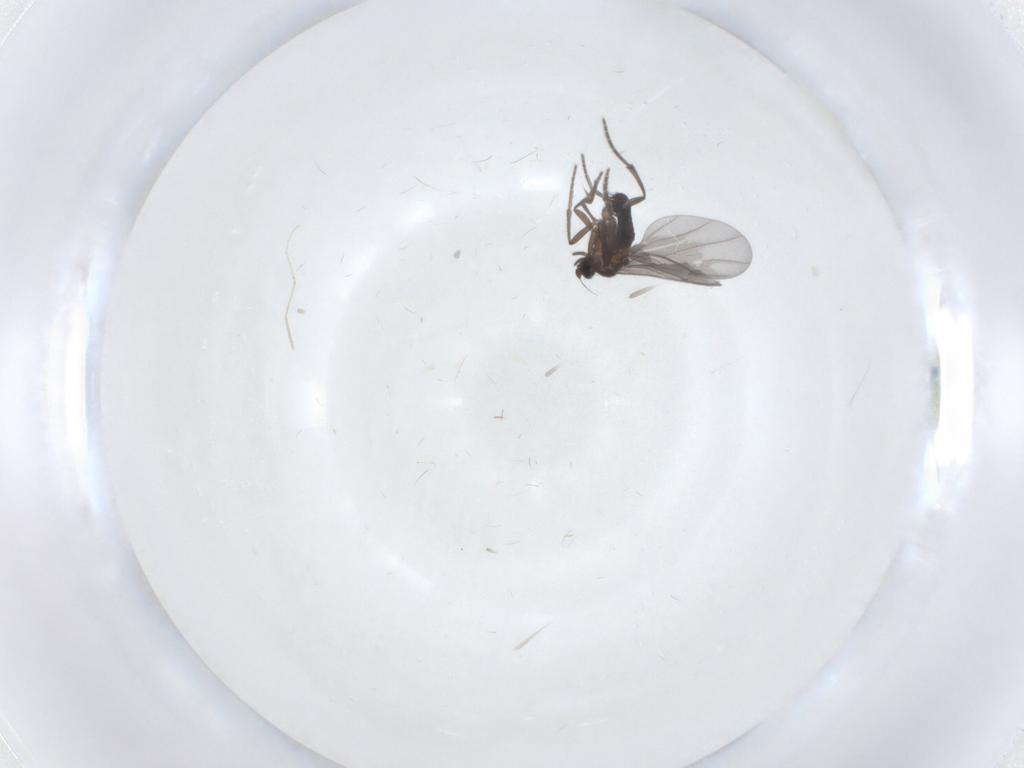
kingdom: Animalia
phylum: Arthropoda
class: Insecta
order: Diptera
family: Phoridae
